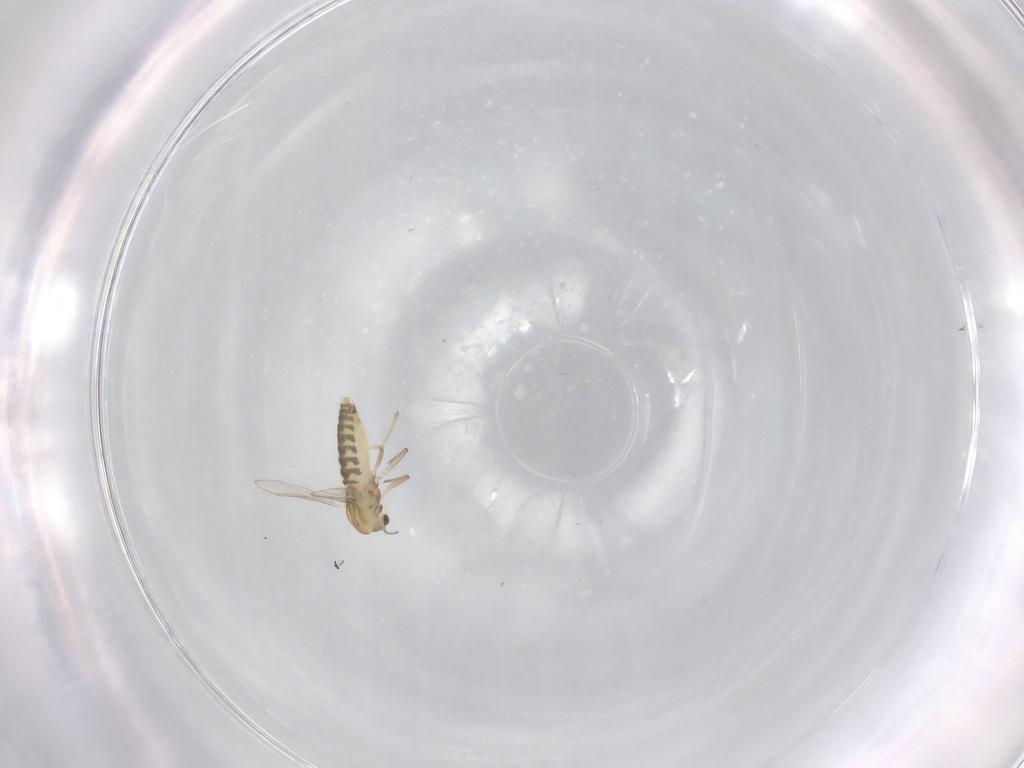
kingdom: Animalia
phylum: Arthropoda
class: Insecta
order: Diptera
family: Chironomidae
